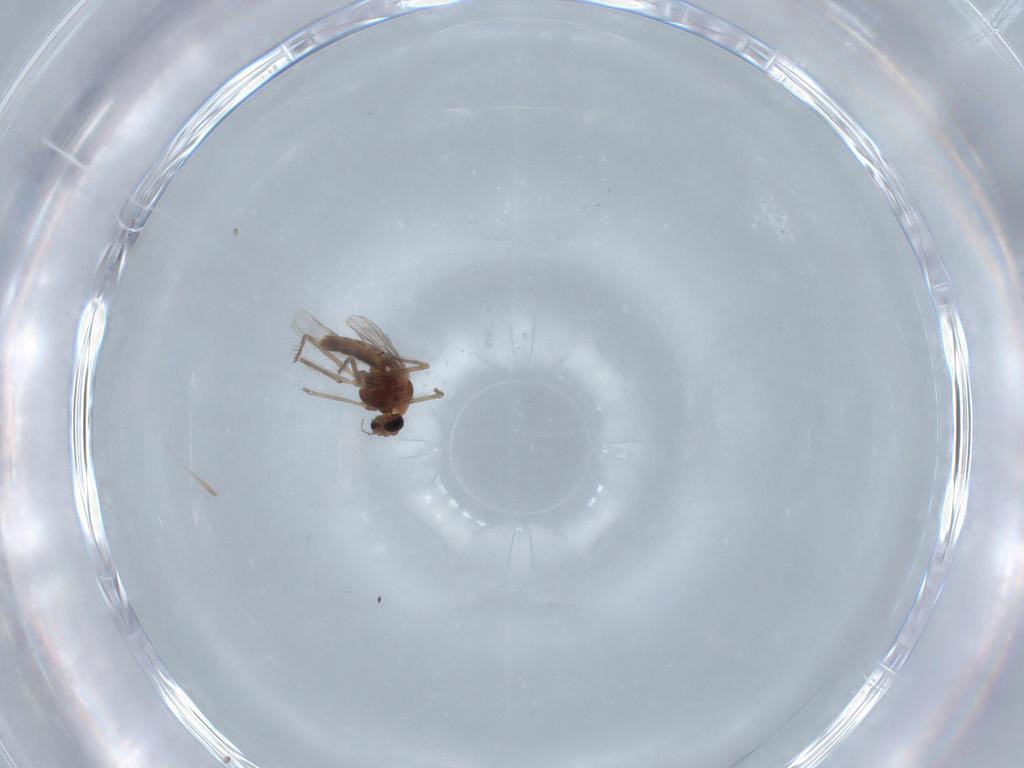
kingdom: Animalia
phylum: Arthropoda
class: Insecta
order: Diptera
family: Chironomidae
